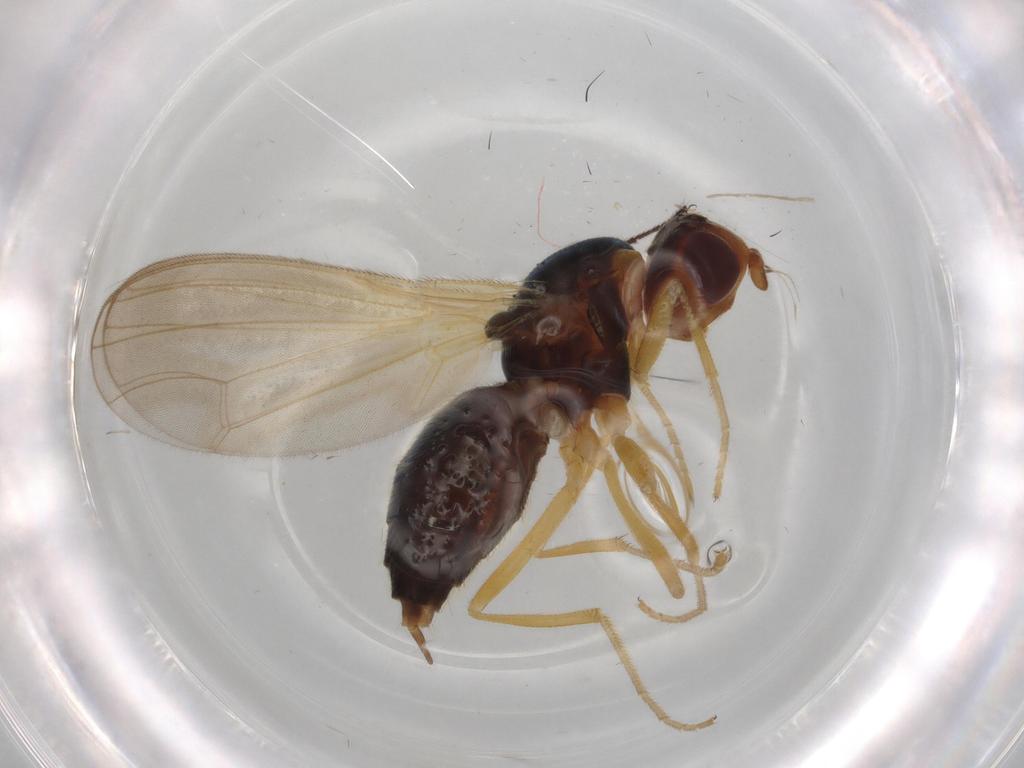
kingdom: Animalia
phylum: Arthropoda
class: Insecta
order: Diptera
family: Hybotidae
